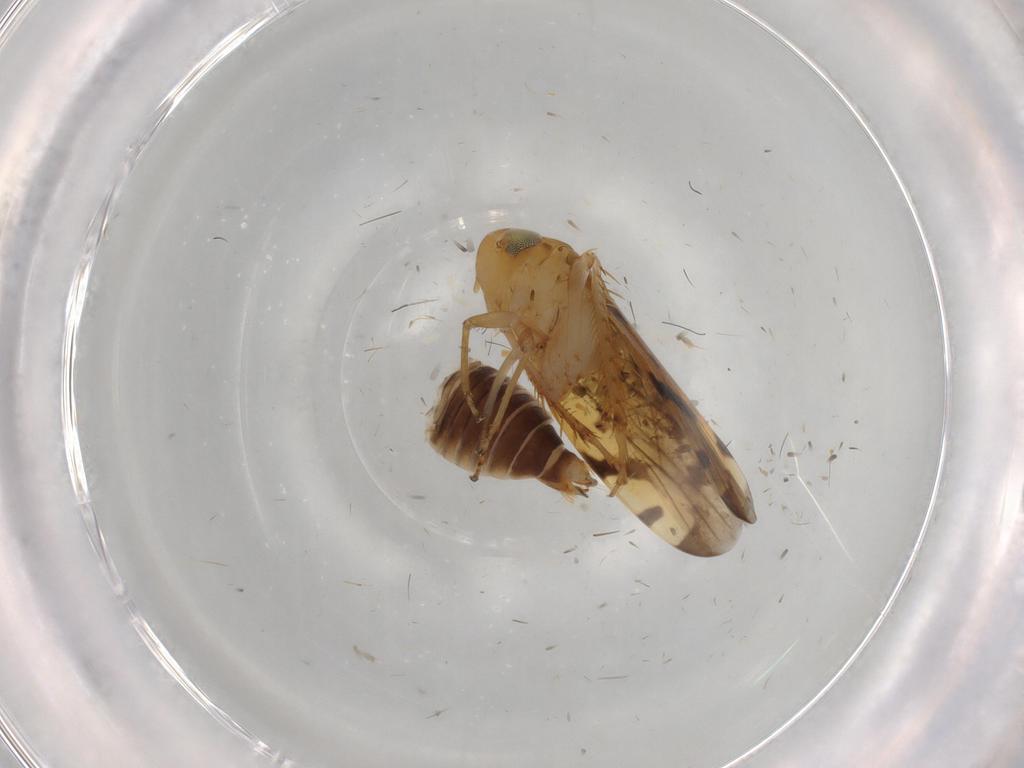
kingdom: Animalia
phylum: Arthropoda
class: Insecta
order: Hemiptera
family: Cicadellidae
